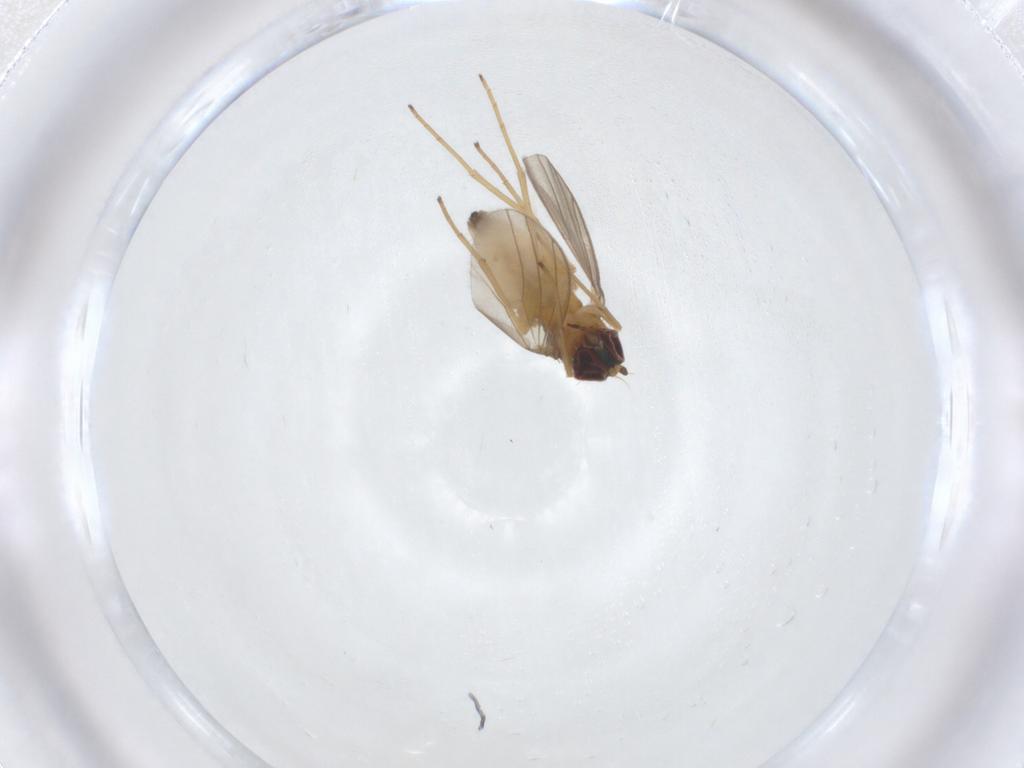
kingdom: Animalia
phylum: Arthropoda
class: Insecta
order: Diptera
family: Dolichopodidae
